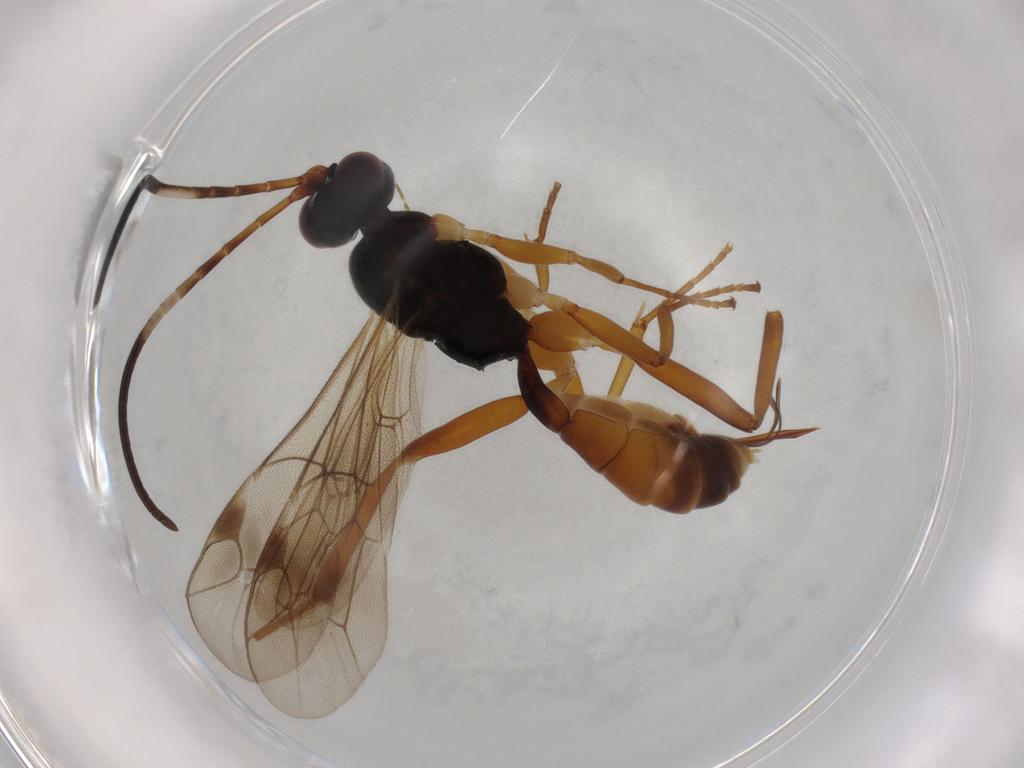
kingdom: Animalia
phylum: Arthropoda
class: Insecta
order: Hymenoptera
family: Ichneumonidae
